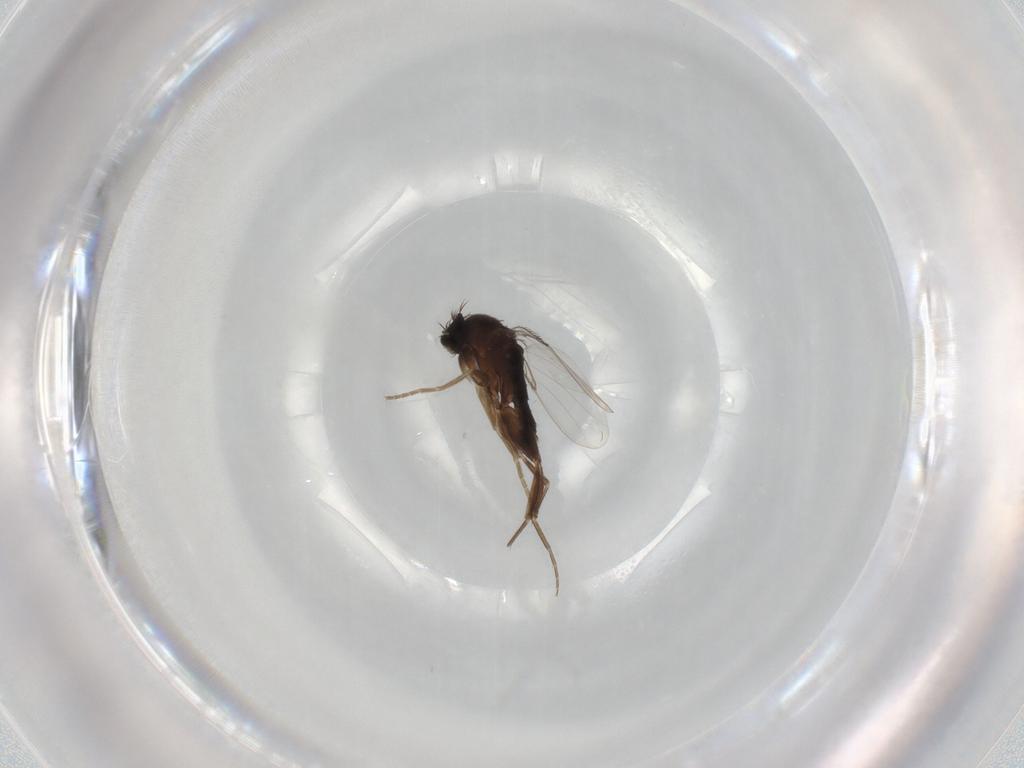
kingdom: Animalia
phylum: Arthropoda
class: Insecta
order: Diptera
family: Phoridae
